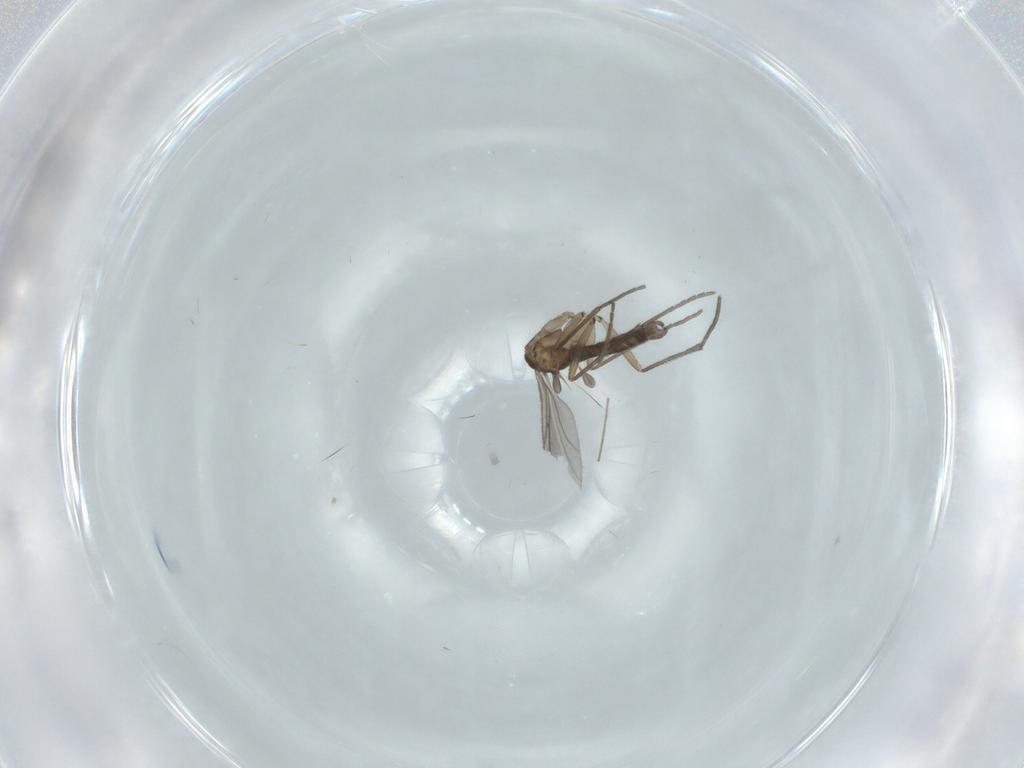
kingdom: Animalia
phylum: Arthropoda
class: Insecta
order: Diptera
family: Sciaridae
